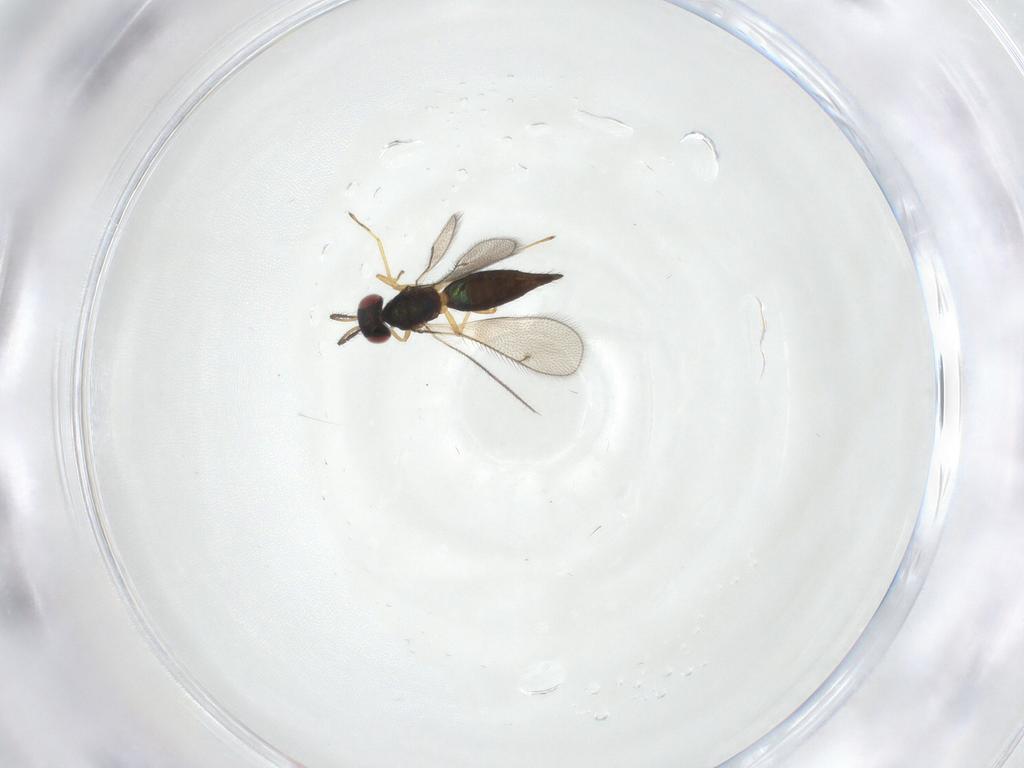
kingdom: Animalia
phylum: Arthropoda
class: Insecta
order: Hymenoptera
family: Eulophidae
